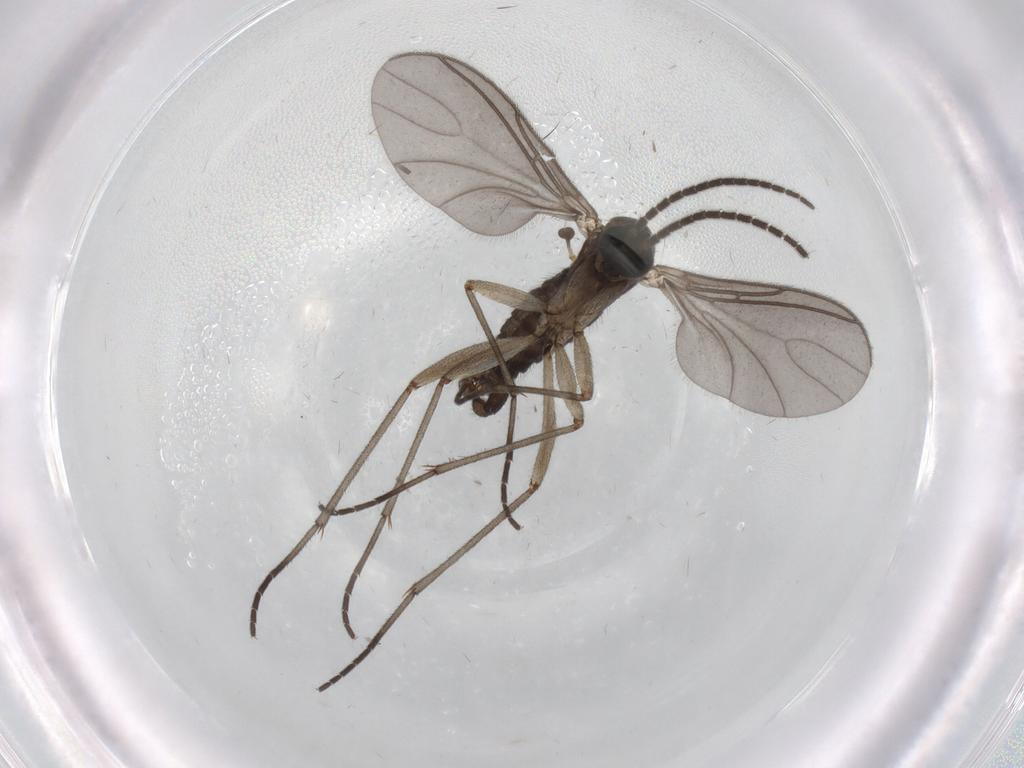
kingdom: Animalia
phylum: Arthropoda
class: Insecta
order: Diptera
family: Sciaridae
